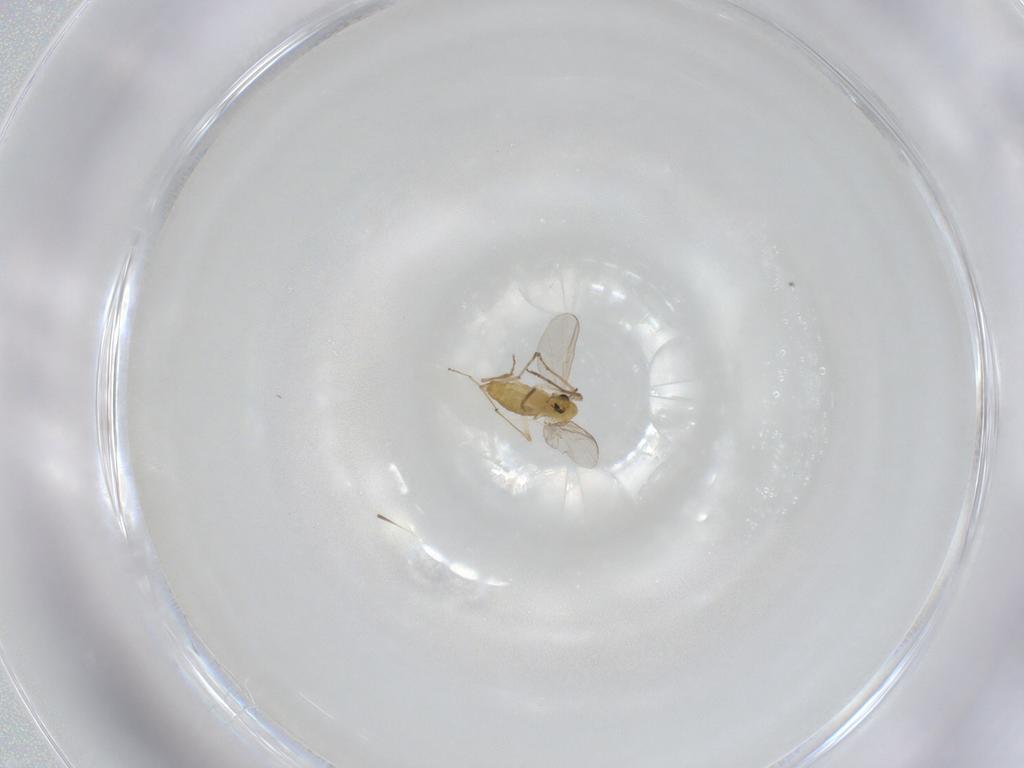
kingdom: Animalia
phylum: Arthropoda
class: Insecta
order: Diptera
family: Chironomidae
